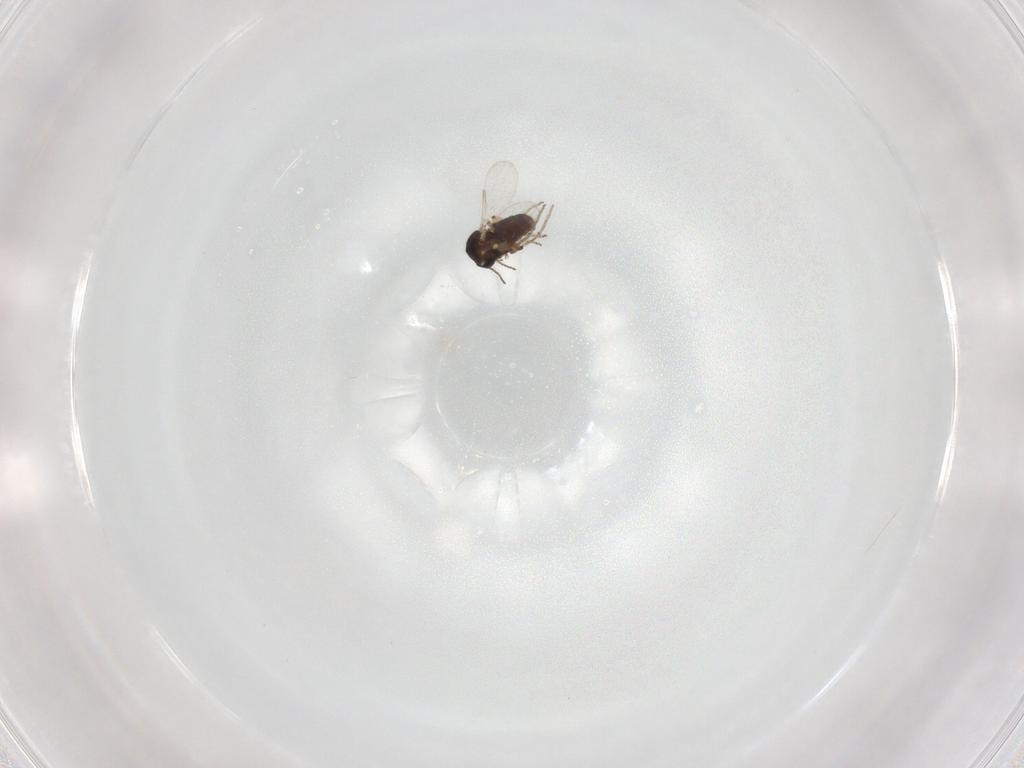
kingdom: Animalia
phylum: Arthropoda
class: Insecta
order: Diptera
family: Ceratopogonidae
